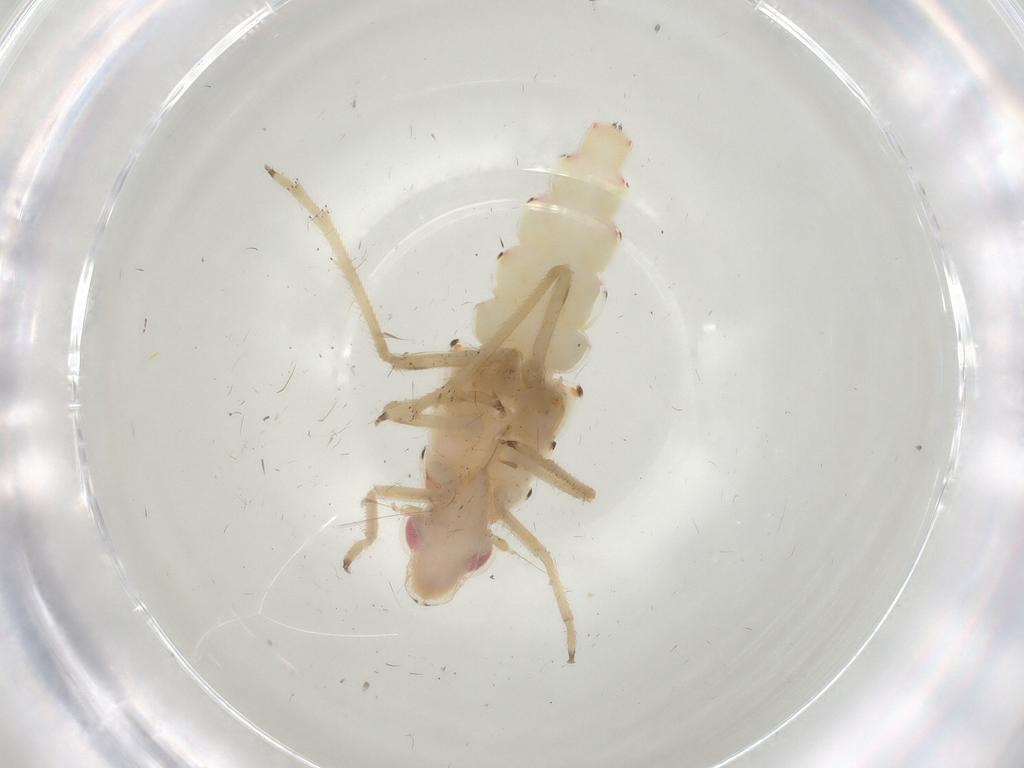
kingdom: Animalia
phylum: Arthropoda
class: Insecta
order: Hemiptera
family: Tropiduchidae
